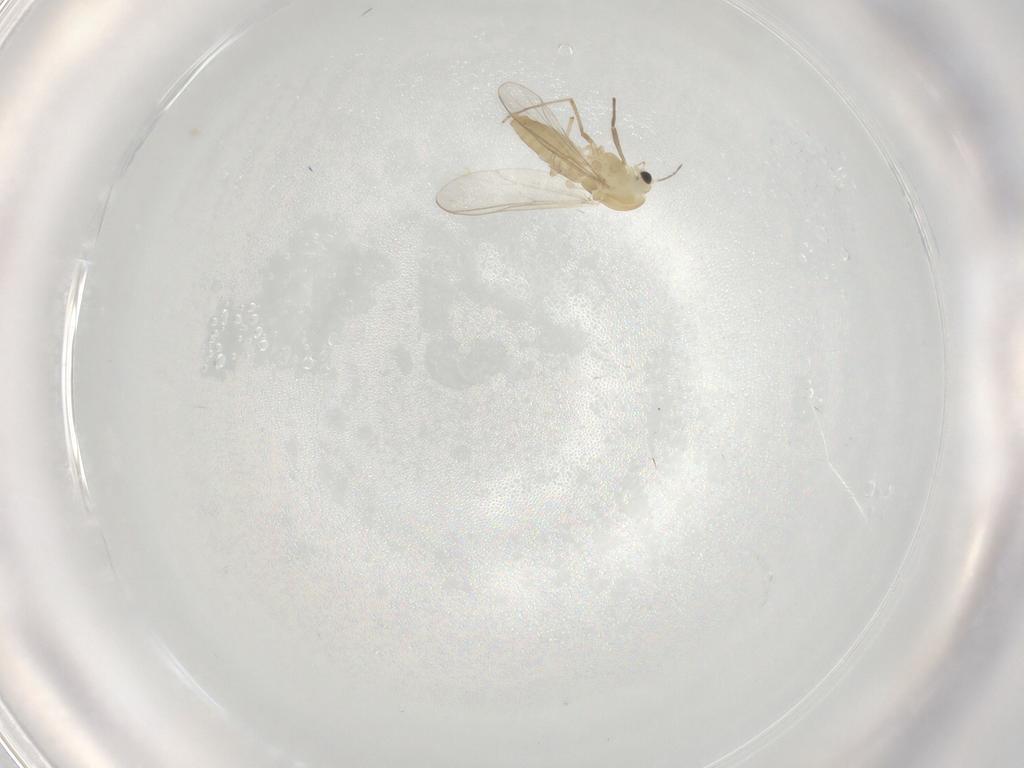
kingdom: Animalia
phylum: Arthropoda
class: Insecta
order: Diptera
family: Chironomidae
